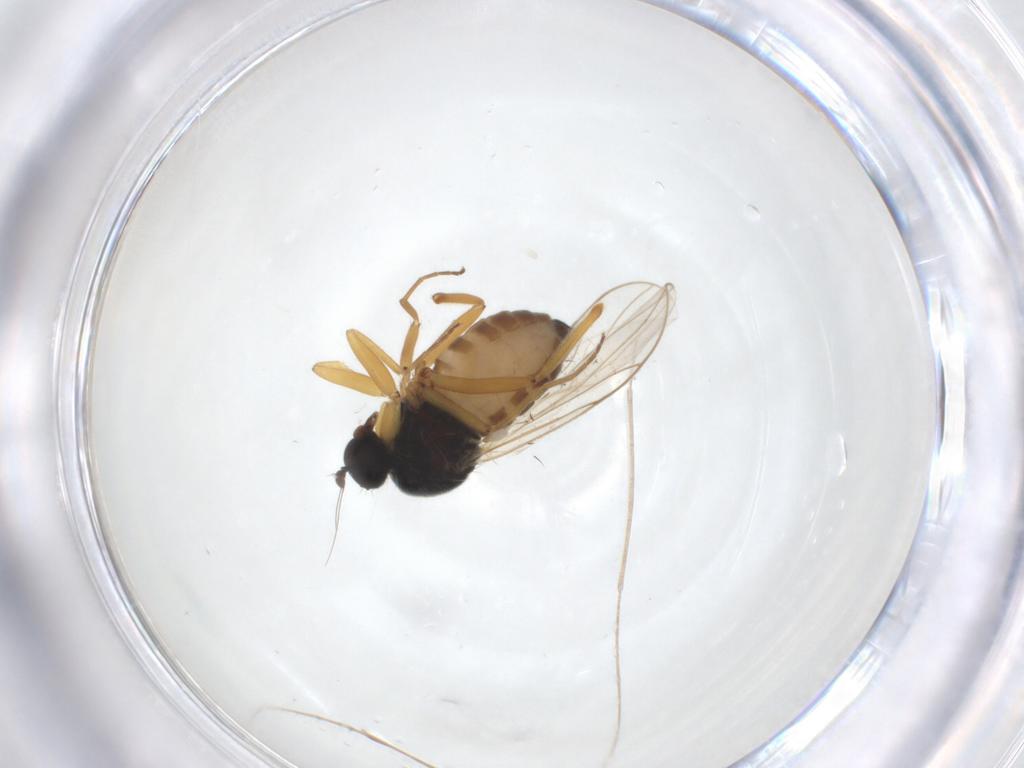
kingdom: Animalia
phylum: Arthropoda
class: Insecta
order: Diptera
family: Hybotidae
